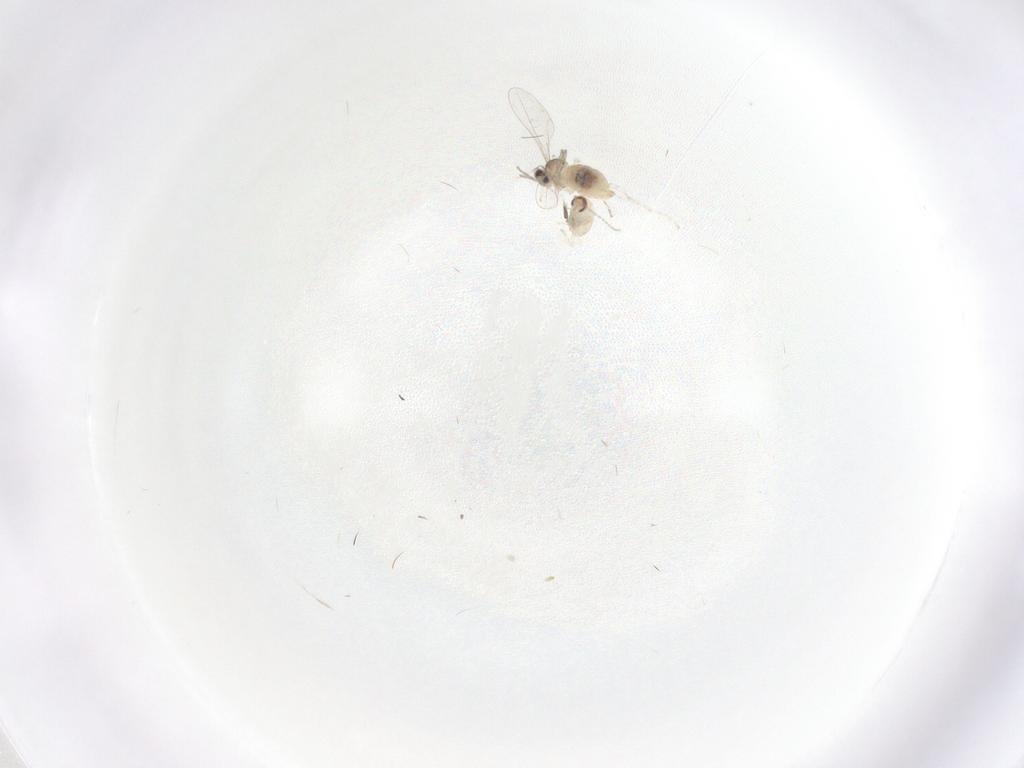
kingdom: Animalia
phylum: Arthropoda
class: Insecta
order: Diptera
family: Cecidomyiidae
